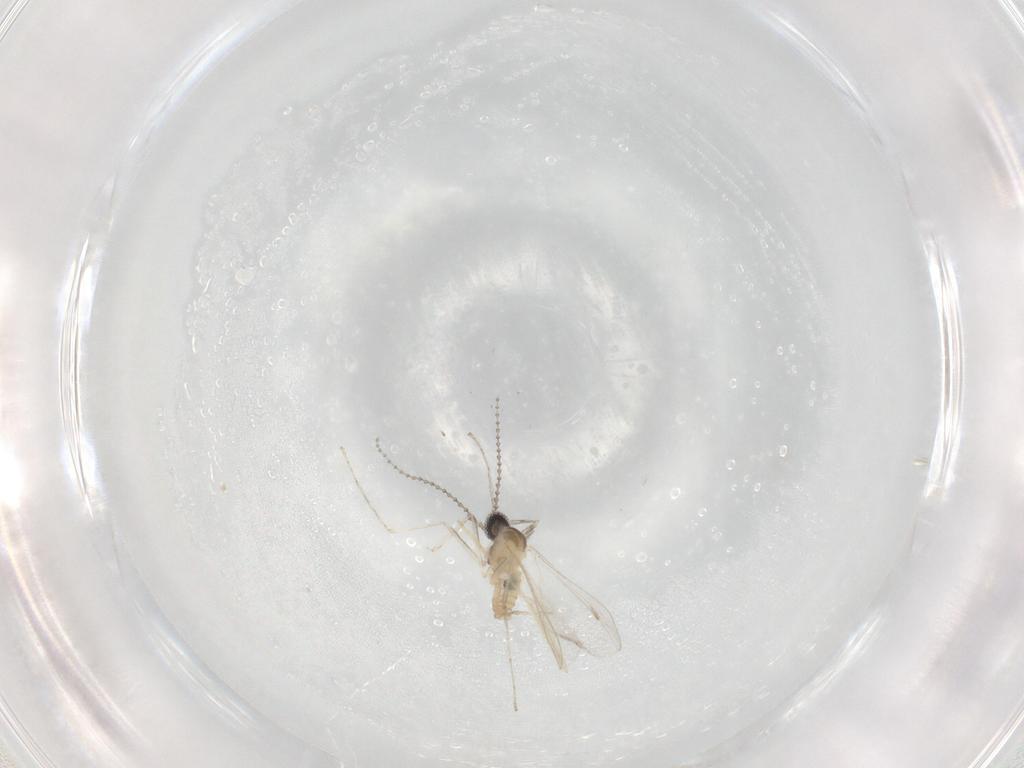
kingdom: Animalia
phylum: Arthropoda
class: Insecta
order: Diptera
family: Cecidomyiidae
